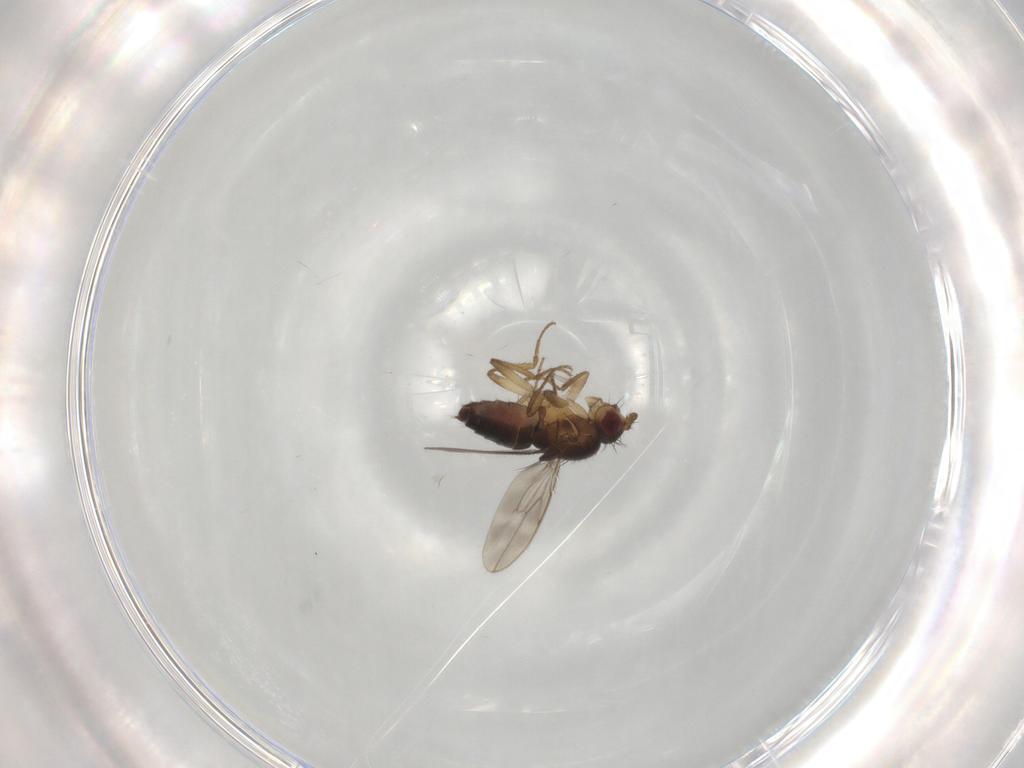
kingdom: Animalia
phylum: Arthropoda
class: Insecta
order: Diptera
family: Sphaeroceridae
